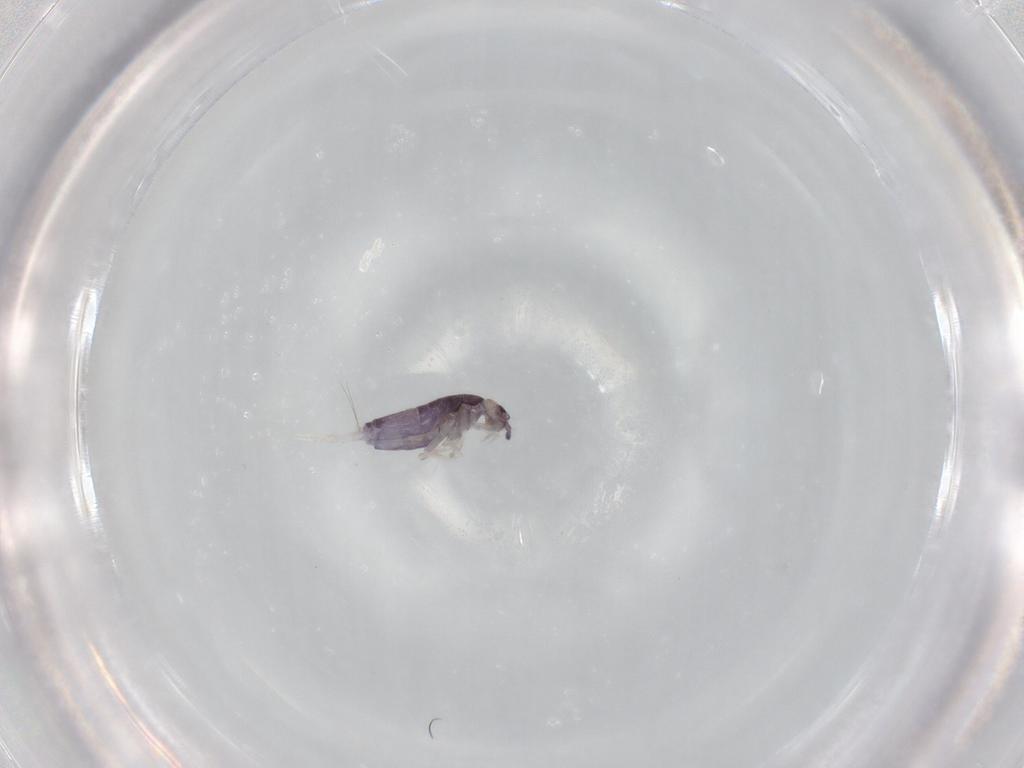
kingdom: Animalia
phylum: Arthropoda
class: Collembola
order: Entomobryomorpha
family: Entomobryidae
